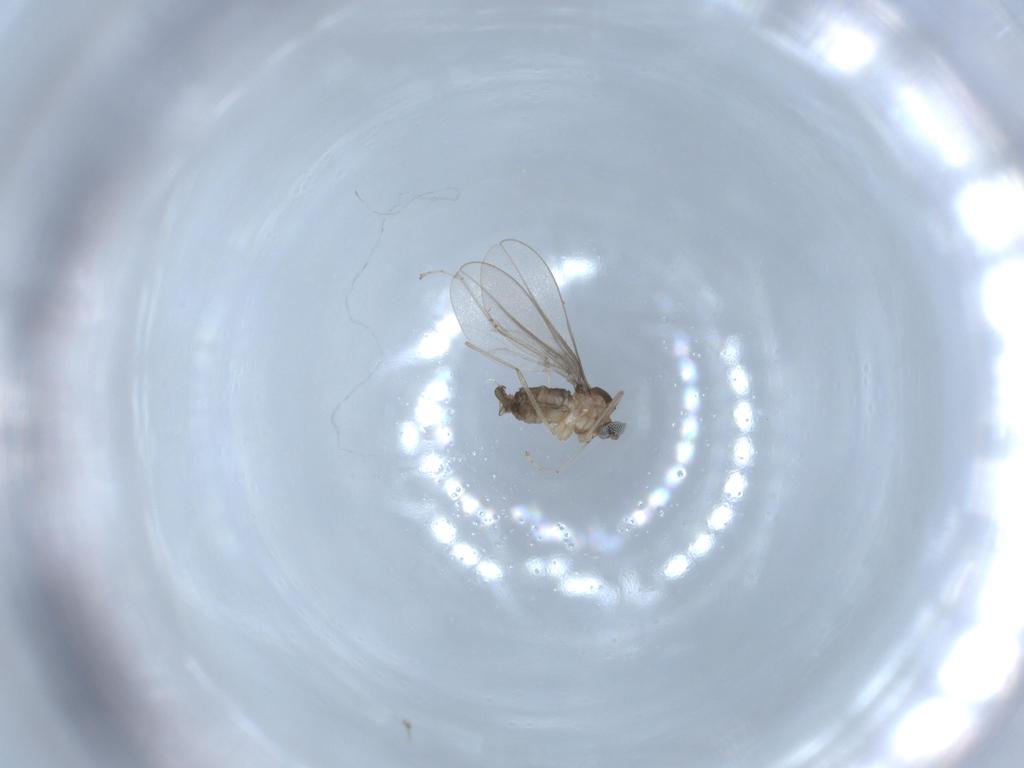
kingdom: Animalia
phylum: Arthropoda
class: Insecta
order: Diptera
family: Cecidomyiidae
